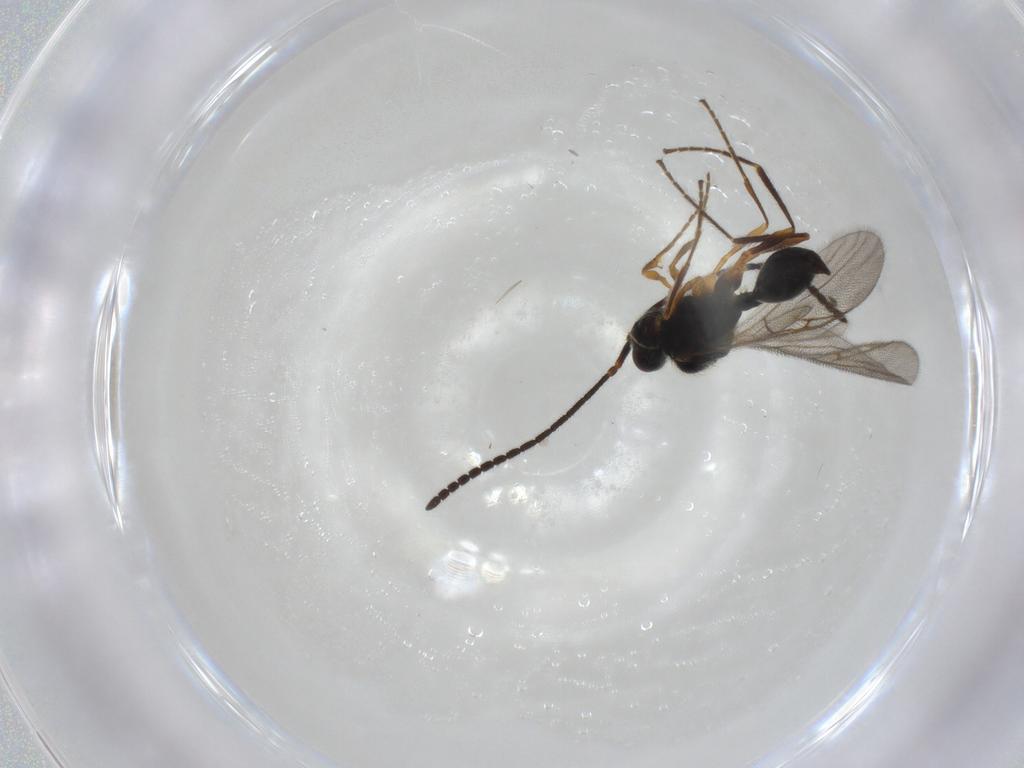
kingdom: Animalia
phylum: Arthropoda
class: Insecta
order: Hymenoptera
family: Diapriidae
